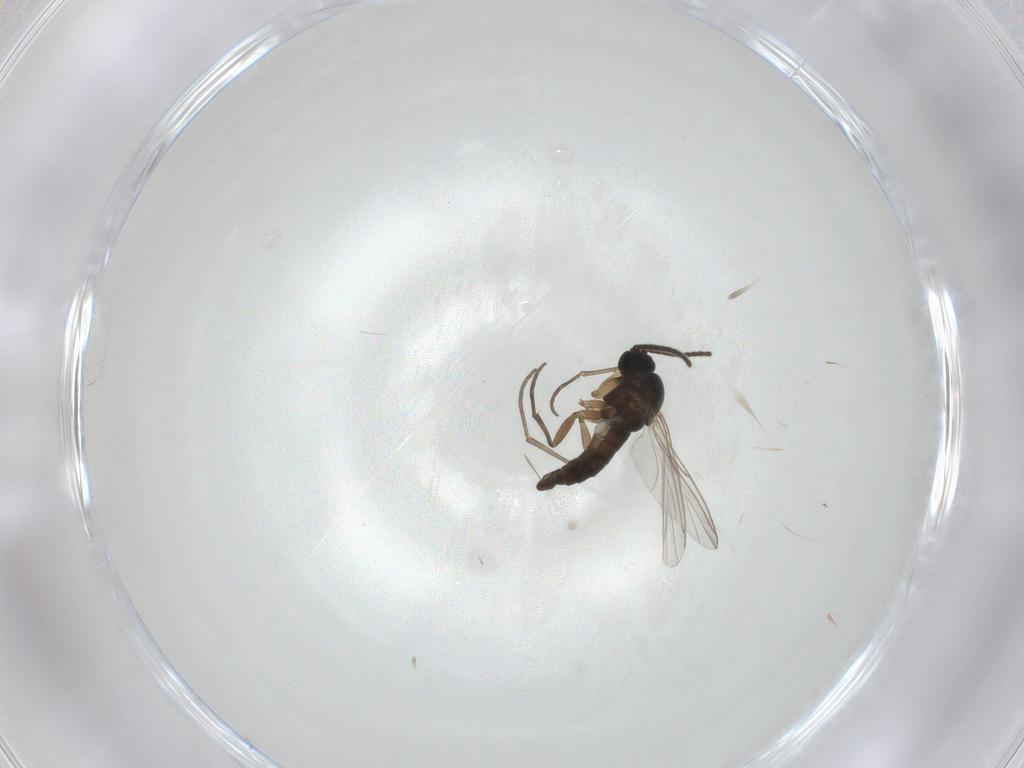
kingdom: Animalia
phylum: Arthropoda
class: Insecta
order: Diptera
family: Sciaridae
